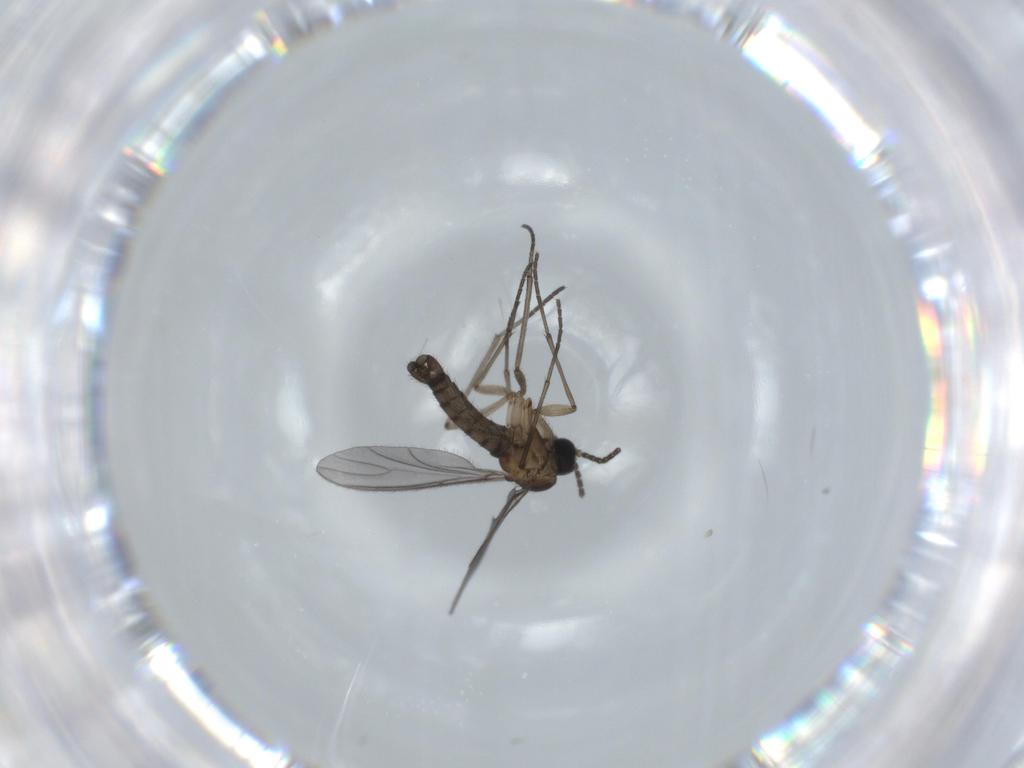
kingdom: Animalia
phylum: Arthropoda
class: Insecta
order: Diptera
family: Sciaridae
